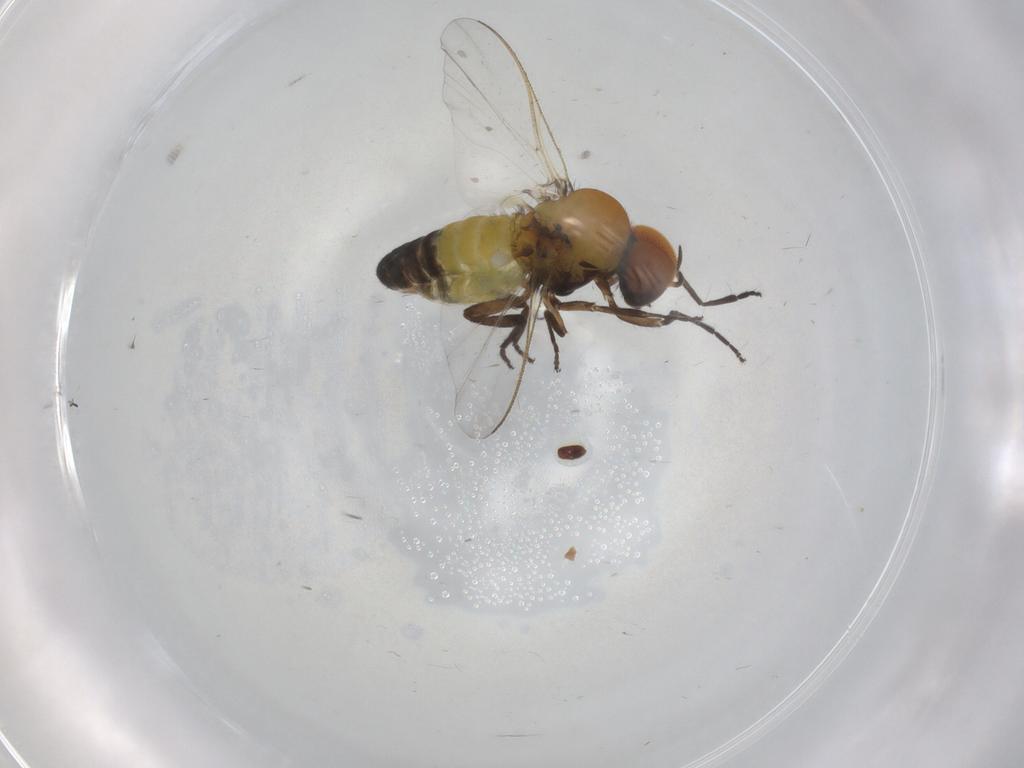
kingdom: Animalia
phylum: Arthropoda
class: Insecta
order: Diptera
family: Simuliidae
